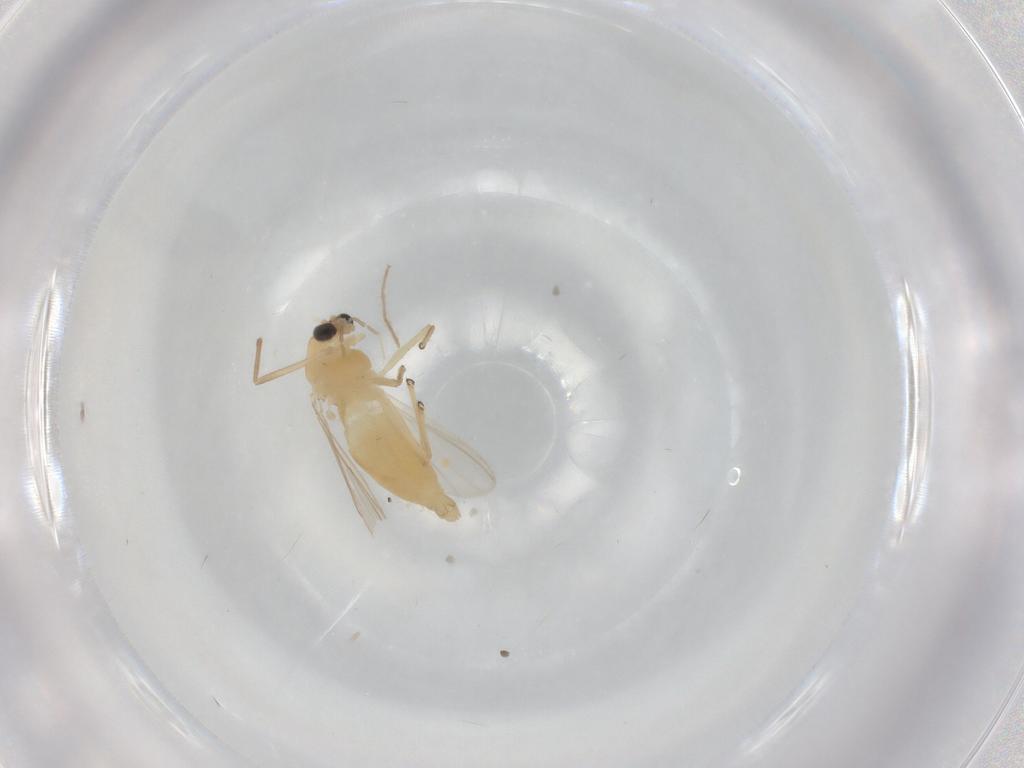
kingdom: Animalia
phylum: Arthropoda
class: Insecta
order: Diptera
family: Chironomidae
